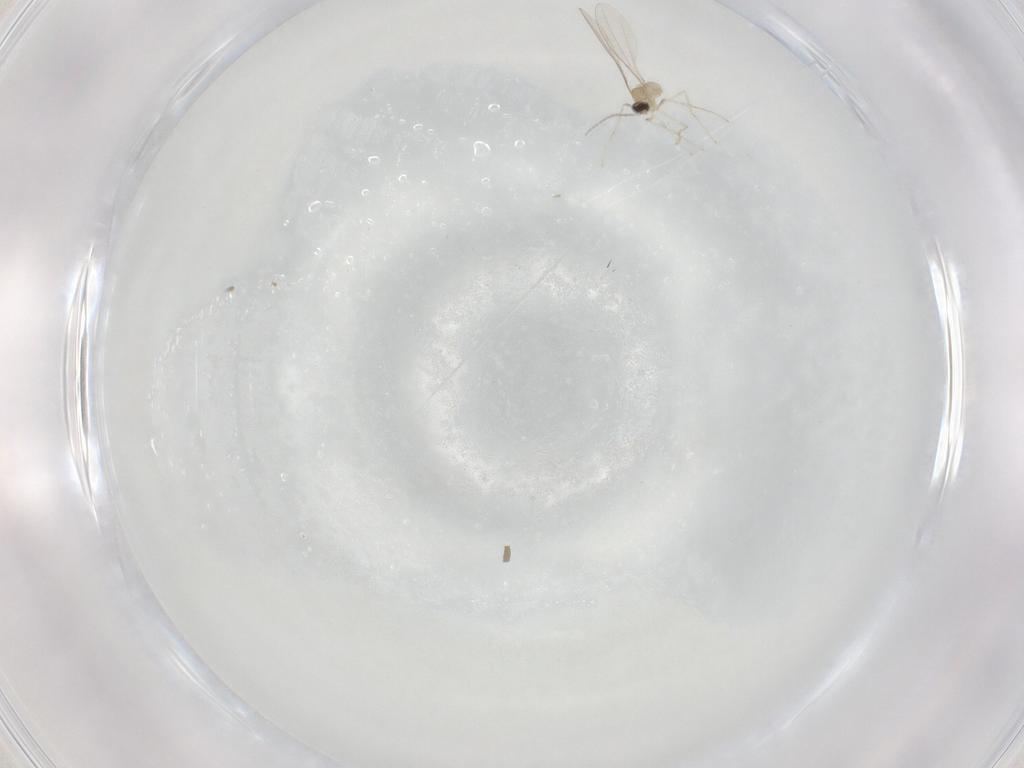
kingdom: Animalia
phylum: Arthropoda
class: Insecta
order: Diptera
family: Cecidomyiidae
